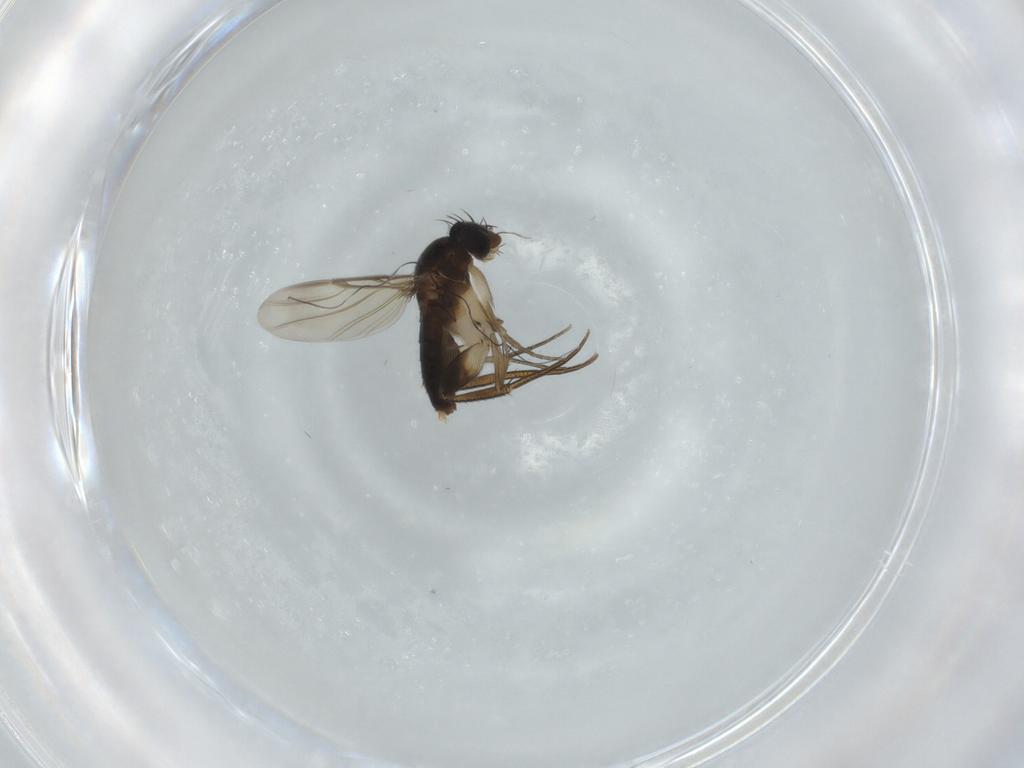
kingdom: Animalia
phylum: Arthropoda
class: Insecta
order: Diptera
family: Phoridae
